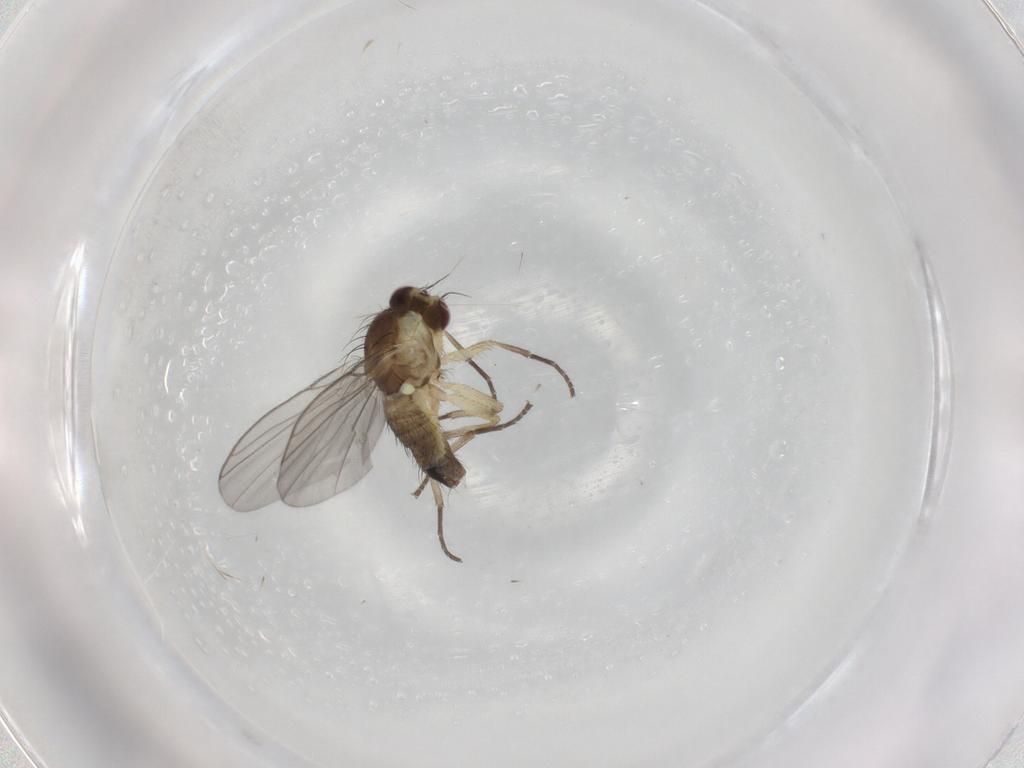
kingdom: Animalia
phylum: Arthropoda
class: Insecta
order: Diptera
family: Agromyzidae
